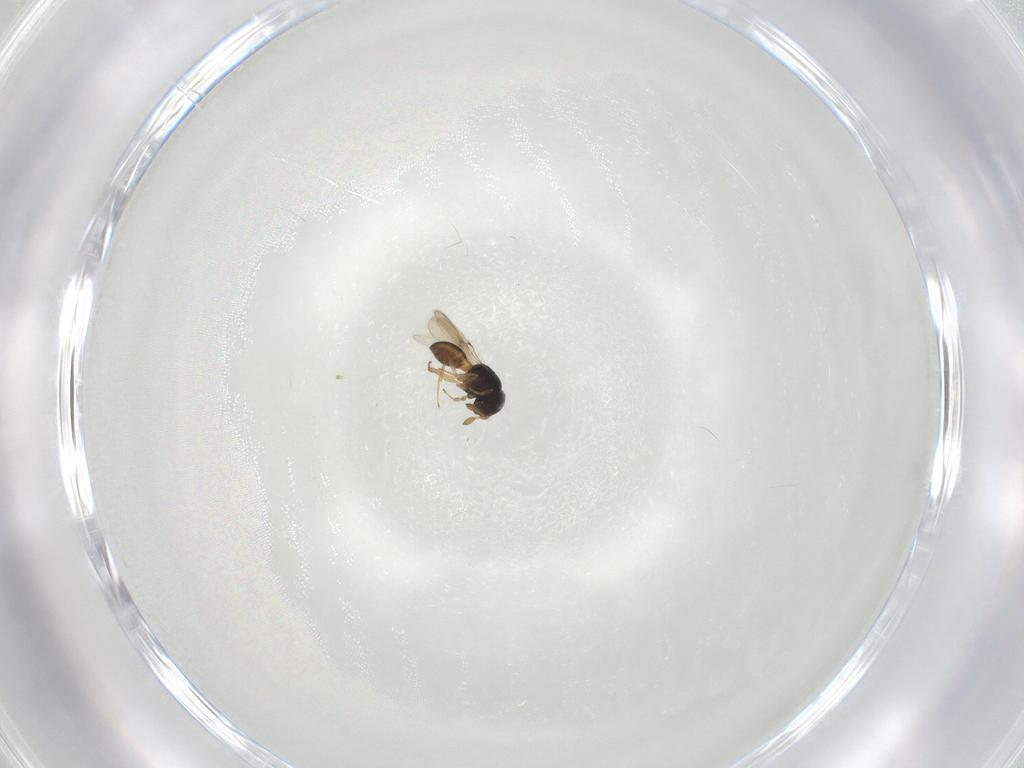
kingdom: Animalia
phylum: Arthropoda
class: Insecta
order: Hymenoptera
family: Scelionidae
